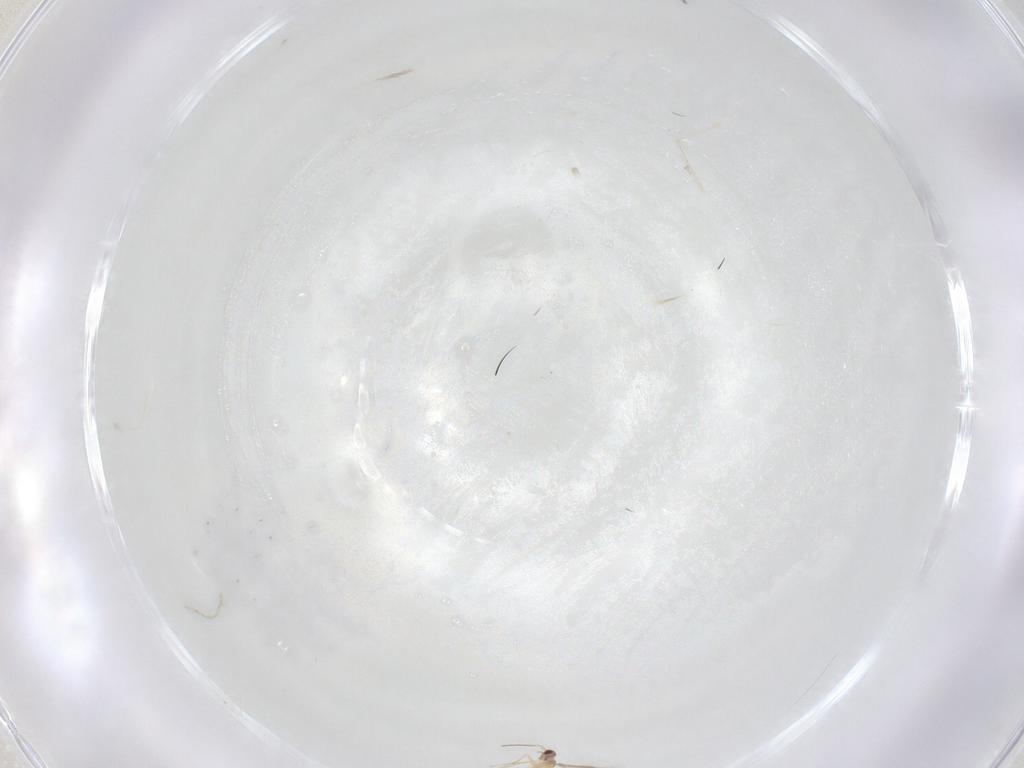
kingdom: Animalia
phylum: Arthropoda
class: Insecta
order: Hymenoptera
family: Mymaridae
